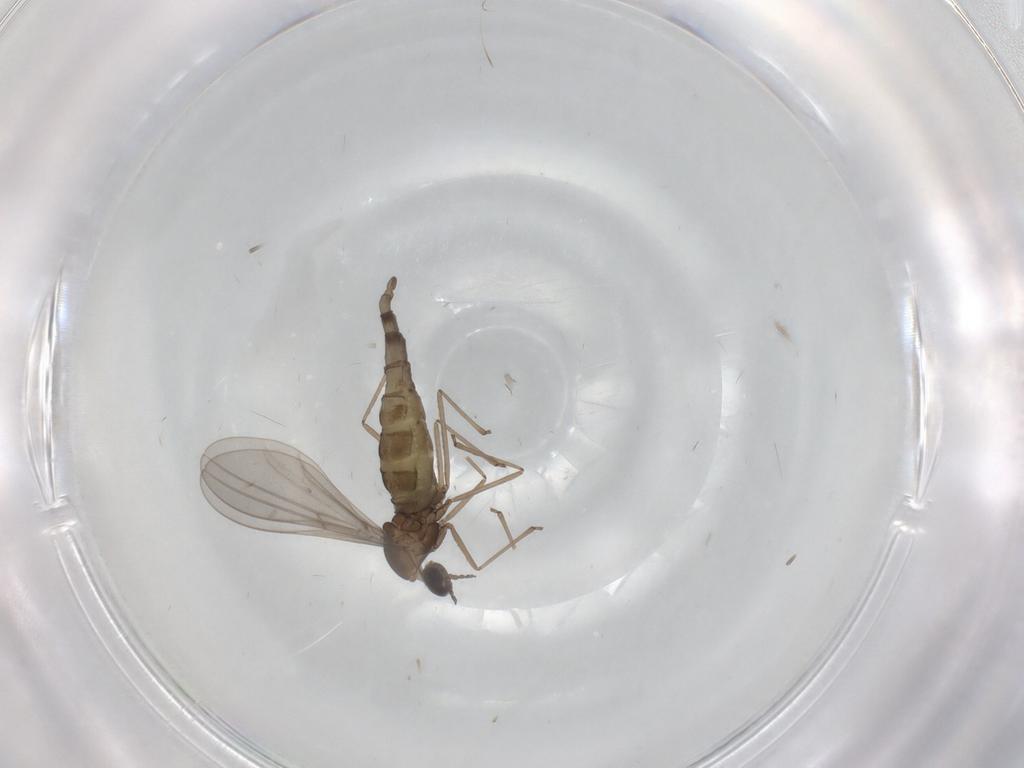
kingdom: Animalia
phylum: Arthropoda
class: Insecta
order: Diptera
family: Cecidomyiidae
